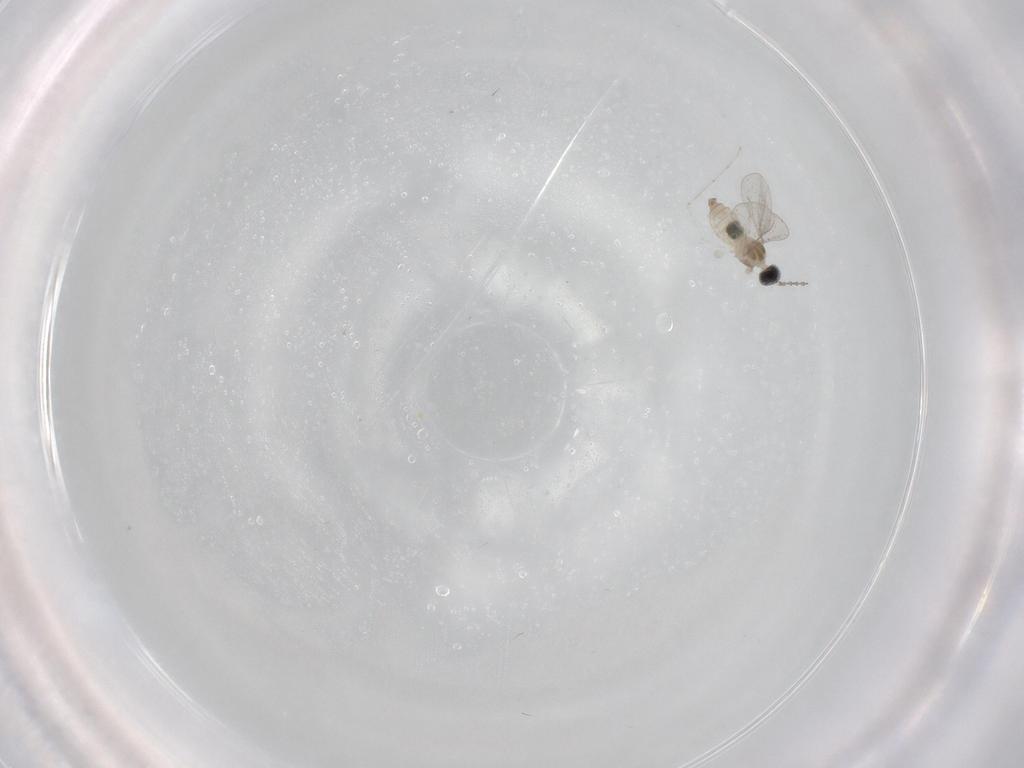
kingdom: Animalia
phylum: Arthropoda
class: Insecta
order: Diptera
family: Cecidomyiidae
